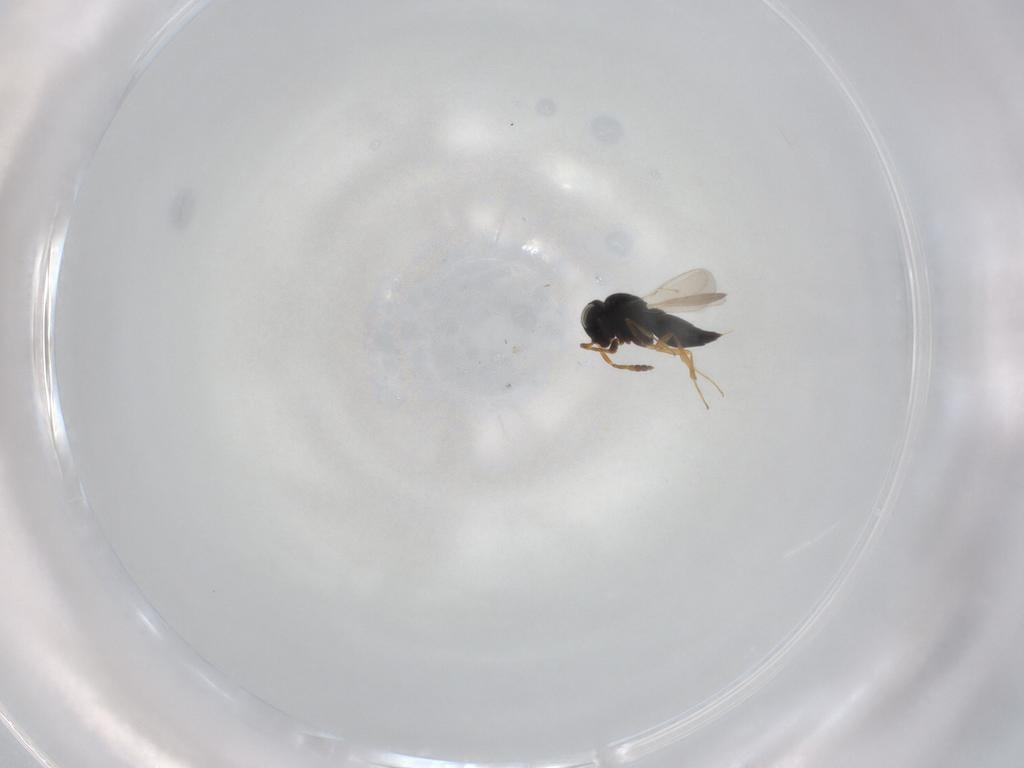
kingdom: Animalia
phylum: Arthropoda
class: Insecta
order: Hymenoptera
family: Scelionidae
